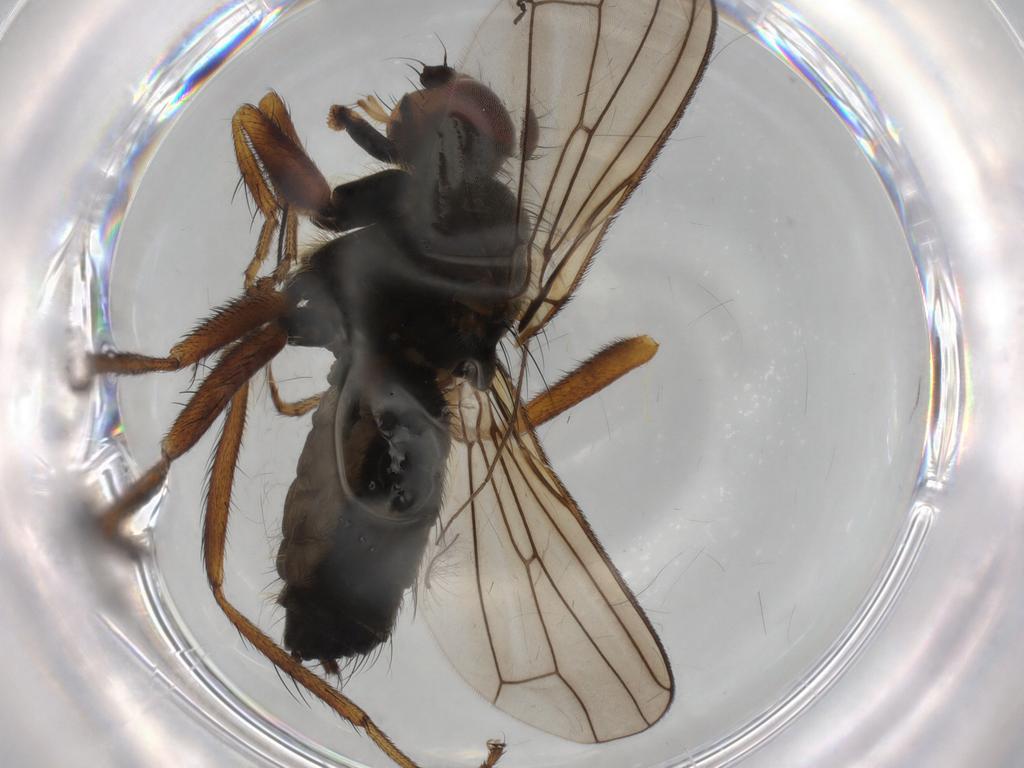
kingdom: Animalia
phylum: Arthropoda
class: Insecta
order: Diptera
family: Scathophagidae
